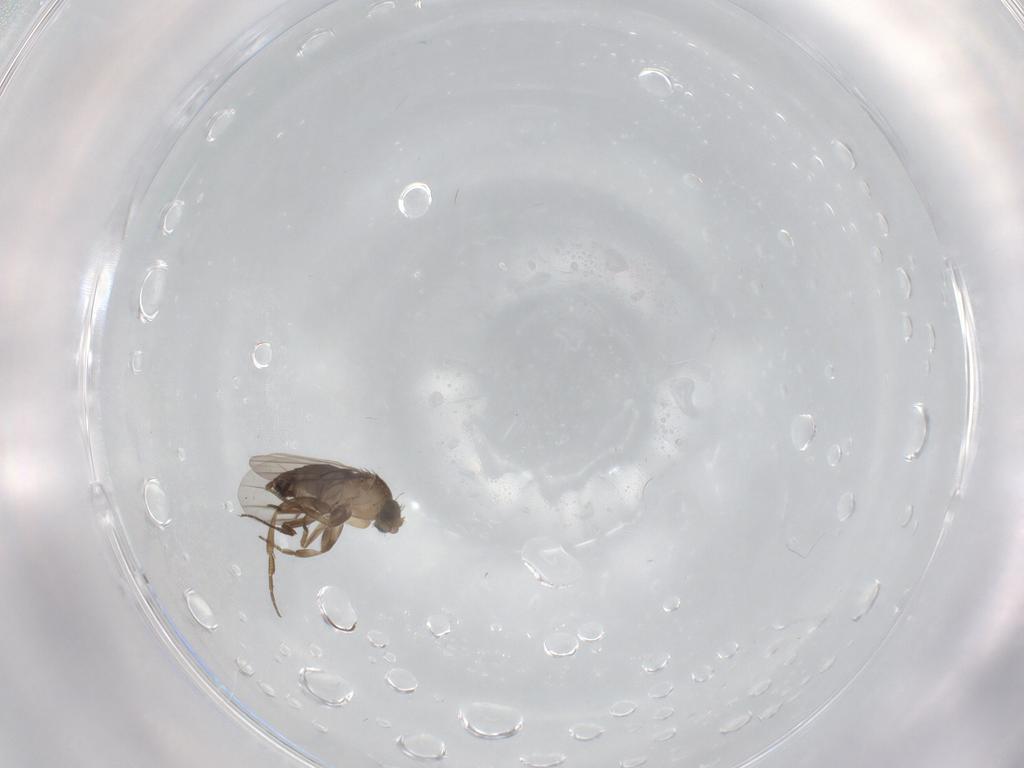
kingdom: Animalia
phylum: Arthropoda
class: Insecta
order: Diptera
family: Phoridae
